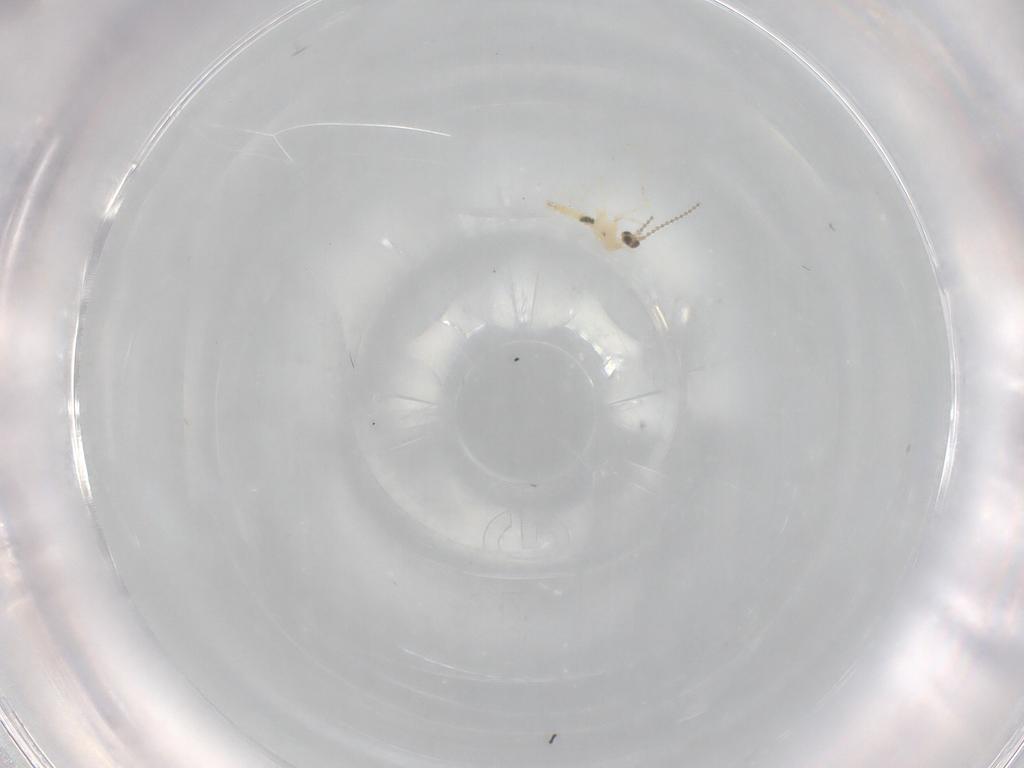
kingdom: Animalia
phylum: Arthropoda
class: Insecta
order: Diptera
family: Cecidomyiidae
